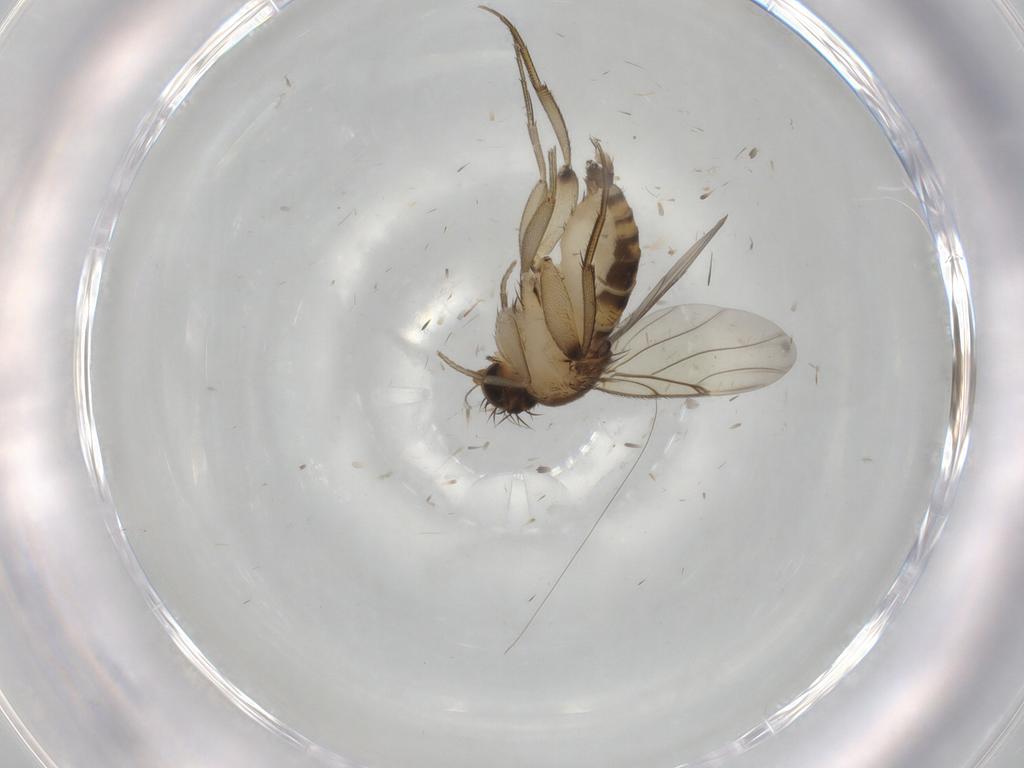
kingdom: Animalia
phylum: Arthropoda
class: Insecta
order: Diptera
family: Phoridae
